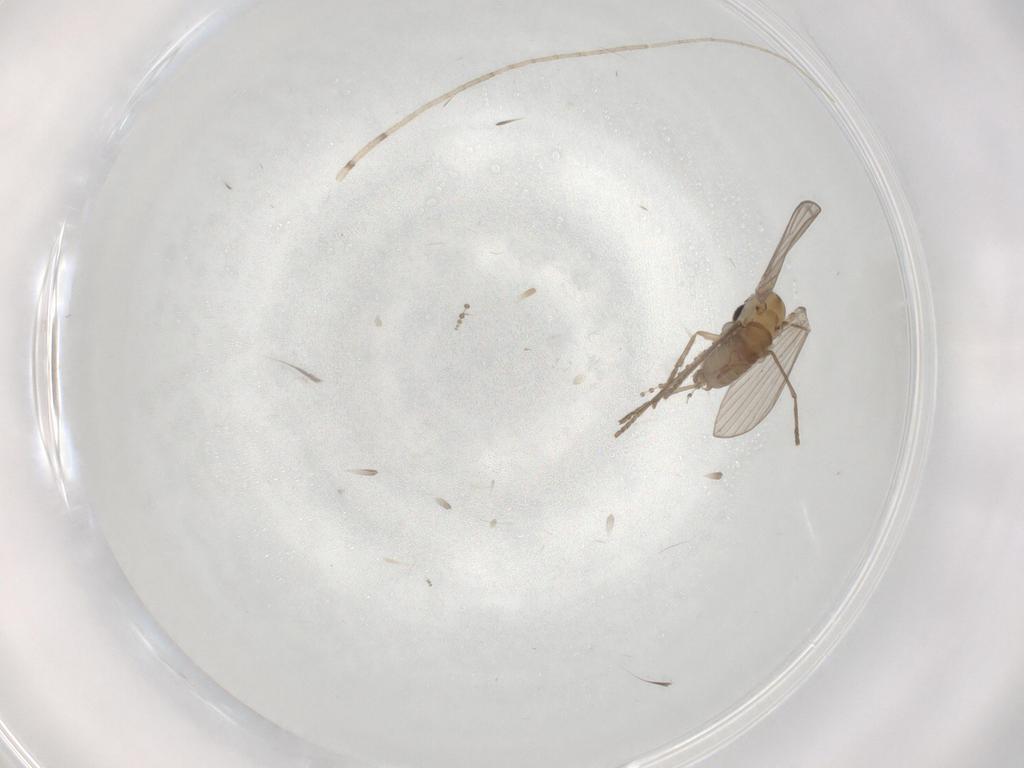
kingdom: Animalia
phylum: Arthropoda
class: Insecta
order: Diptera
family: Psychodidae
